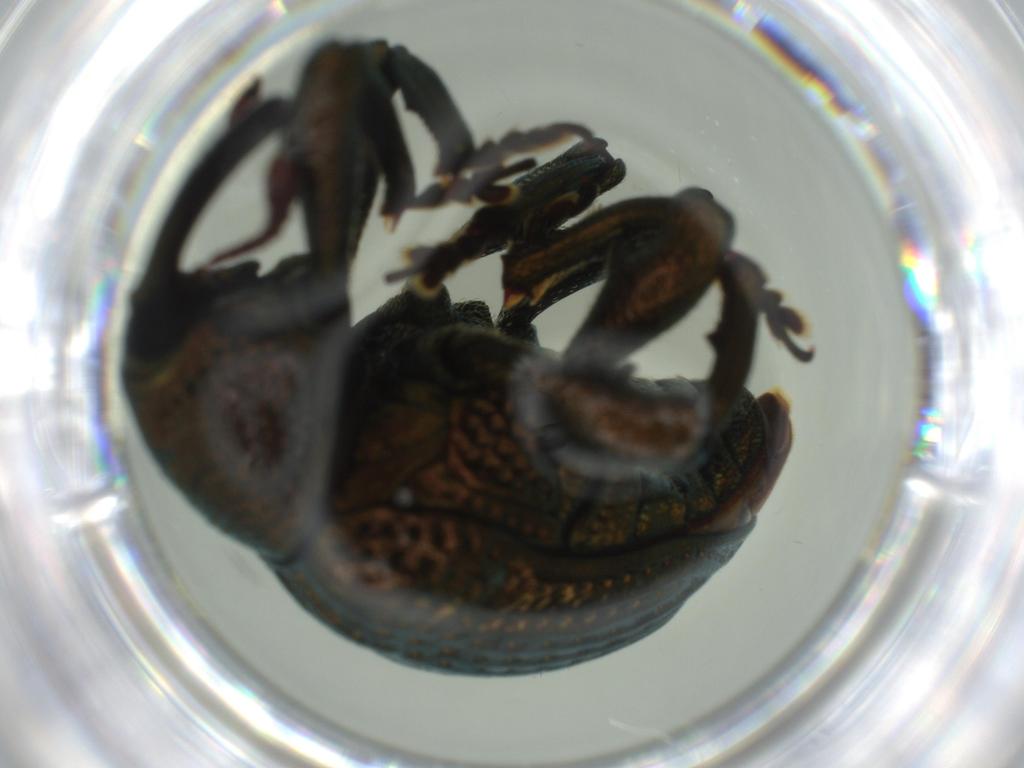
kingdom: Animalia
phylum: Arthropoda
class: Insecta
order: Coleoptera
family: Curculionidae
